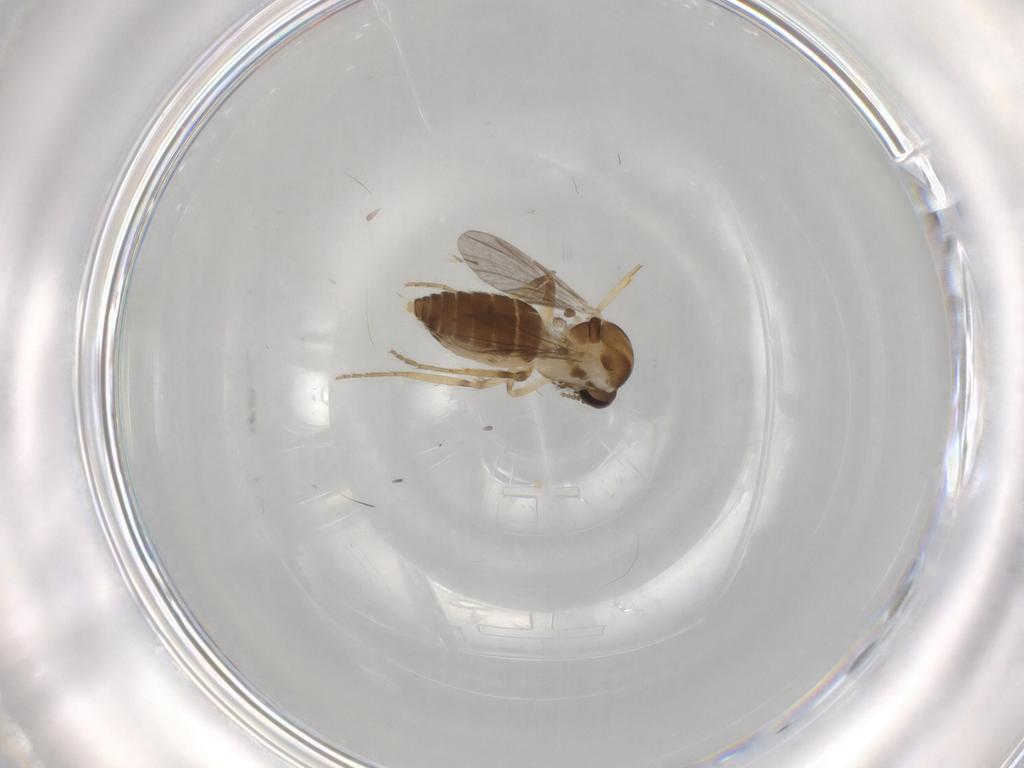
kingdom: Animalia
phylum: Arthropoda
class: Insecta
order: Diptera
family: Ceratopogonidae
